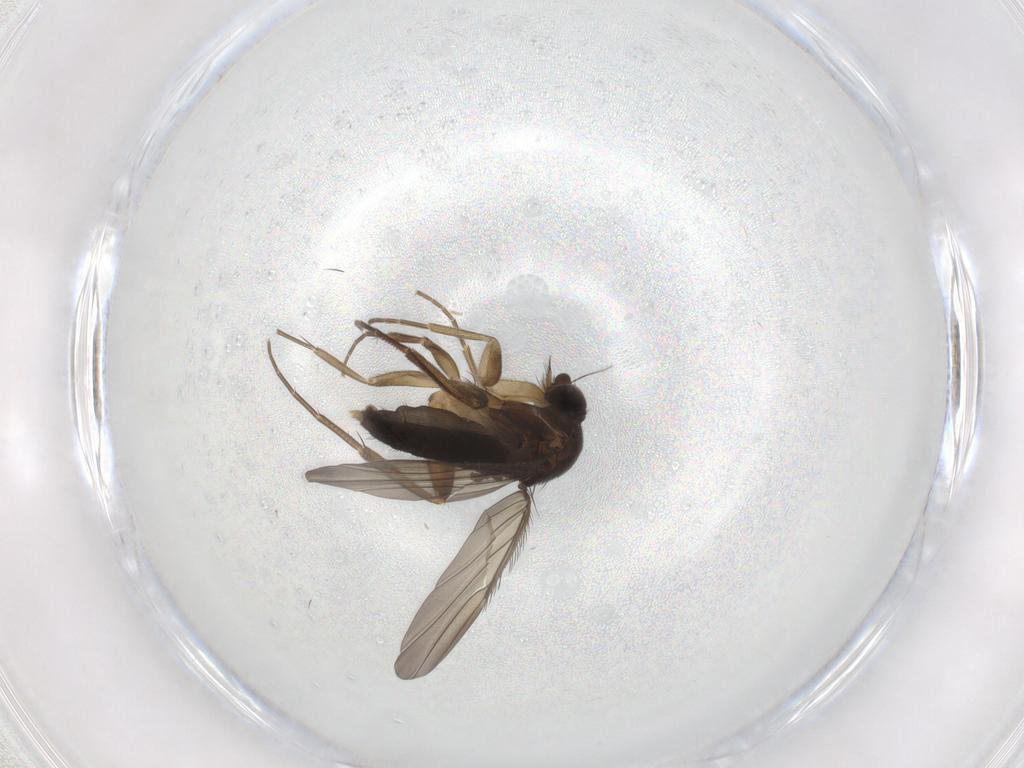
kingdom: Animalia
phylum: Arthropoda
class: Insecta
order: Diptera
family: Phoridae
